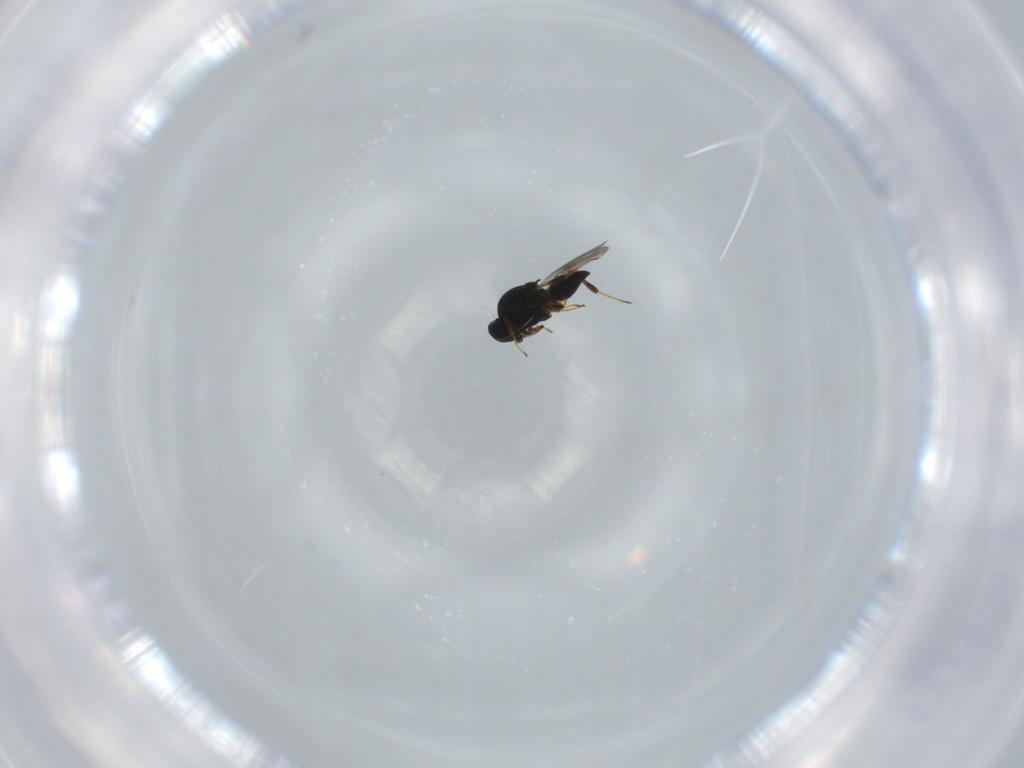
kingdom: Animalia
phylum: Arthropoda
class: Insecta
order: Hymenoptera
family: Platygastridae
